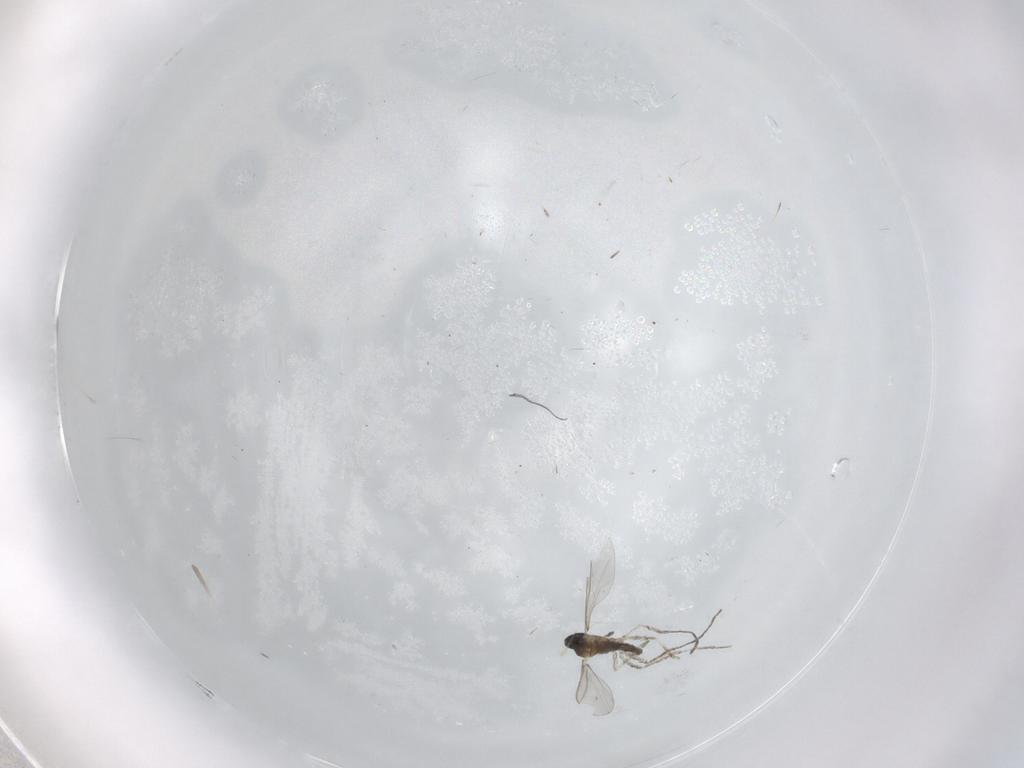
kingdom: Animalia
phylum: Arthropoda
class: Insecta
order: Diptera
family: Cecidomyiidae
